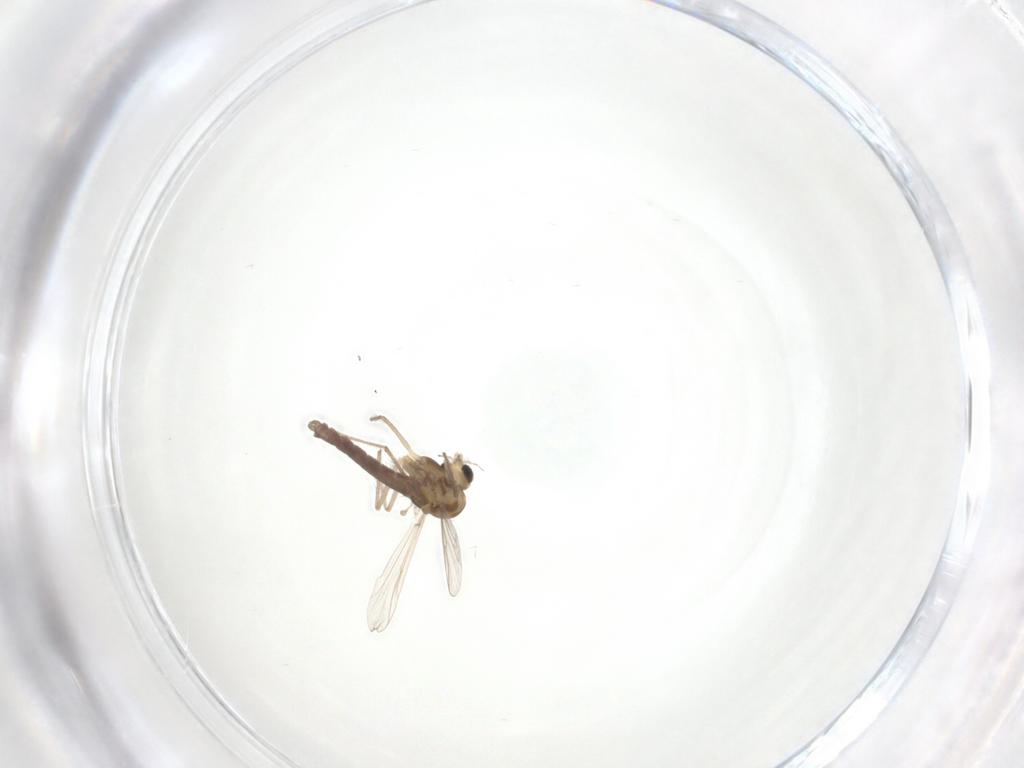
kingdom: Animalia
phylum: Arthropoda
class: Insecta
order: Diptera
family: Chironomidae
